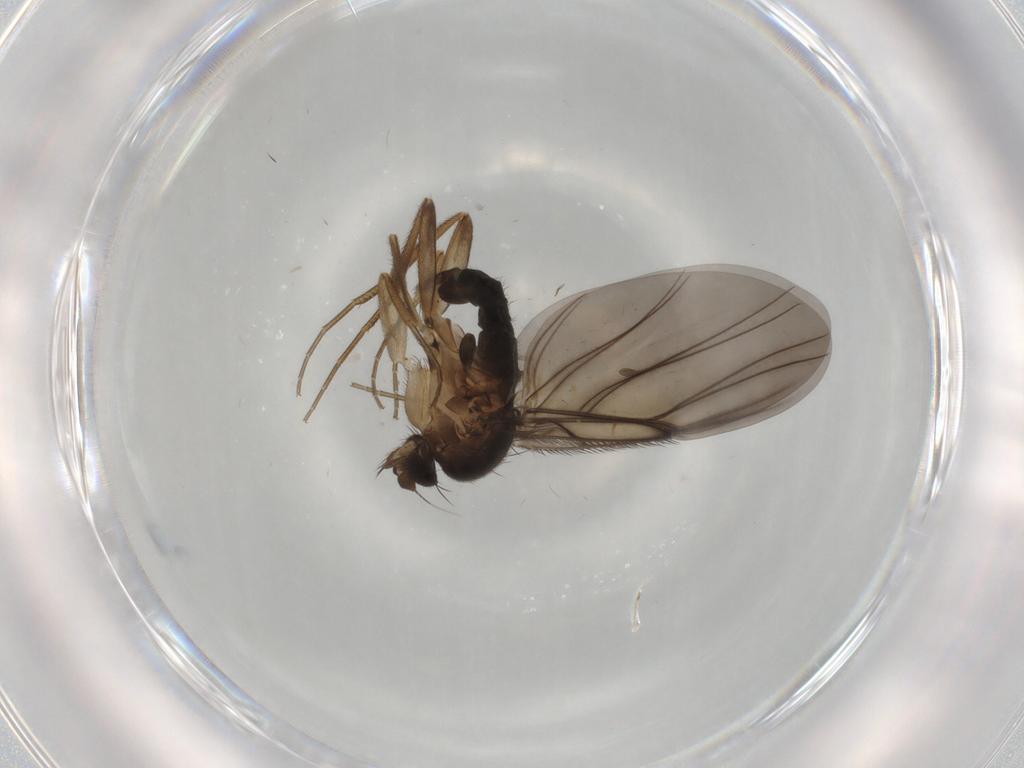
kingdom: Animalia
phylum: Arthropoda
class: Insecta
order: Diptera
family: Phoridae
